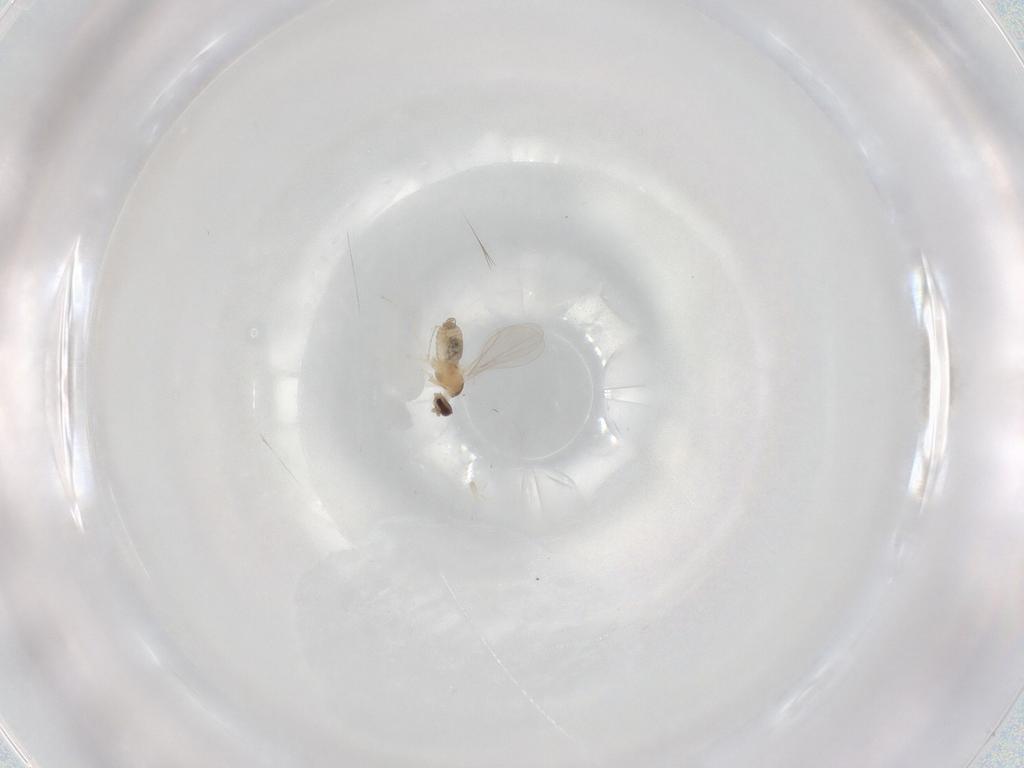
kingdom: Animalia
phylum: Arthropoda
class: Insecta
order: Diptera
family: Cecidomyiidae
